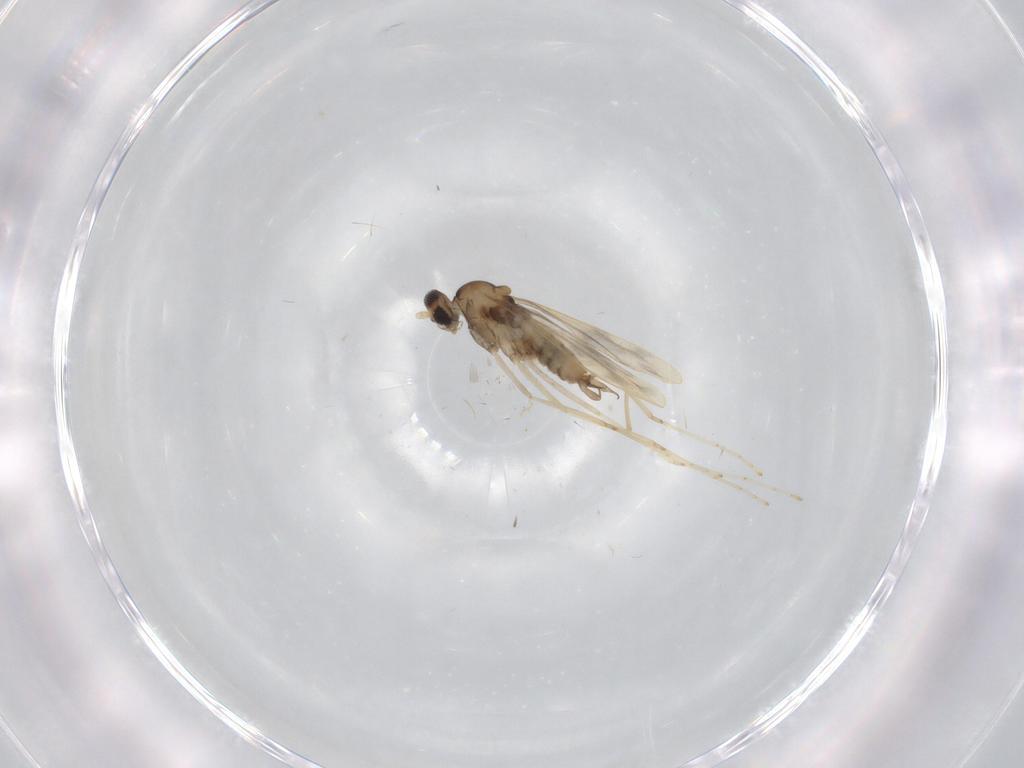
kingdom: Animalia
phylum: Arthropoda
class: Insecta
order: Diptera
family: Cecidomyiidae
